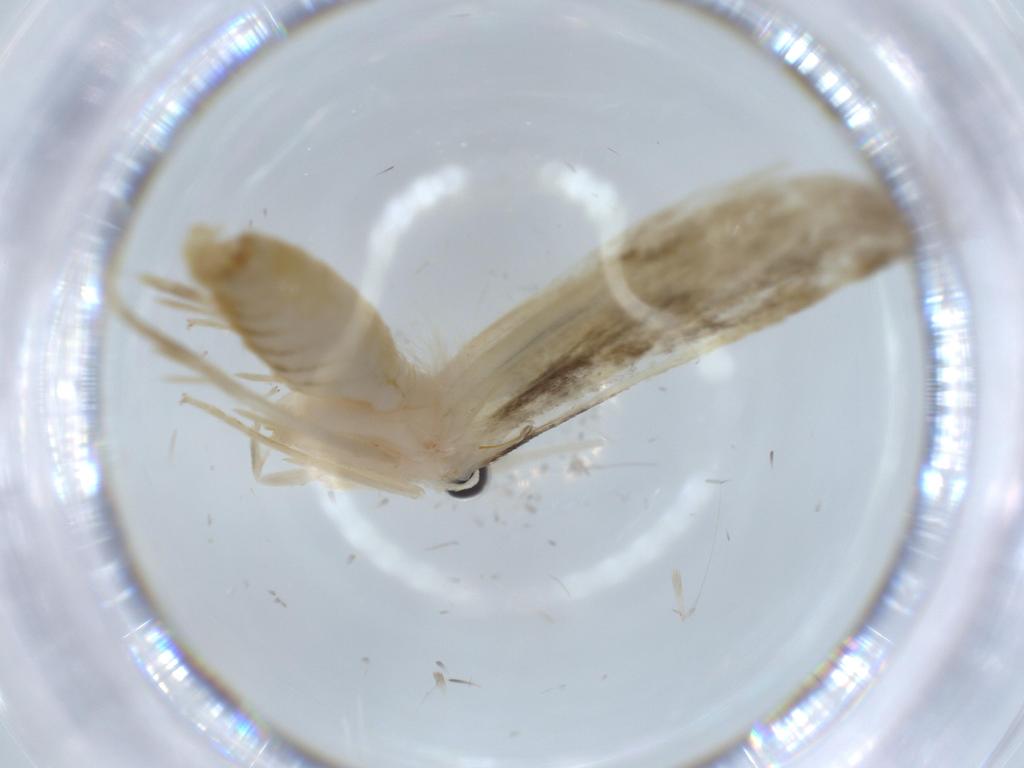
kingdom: Animalia
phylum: Arthropoda
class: Insecta
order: Lepidoptera
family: Tineidae
